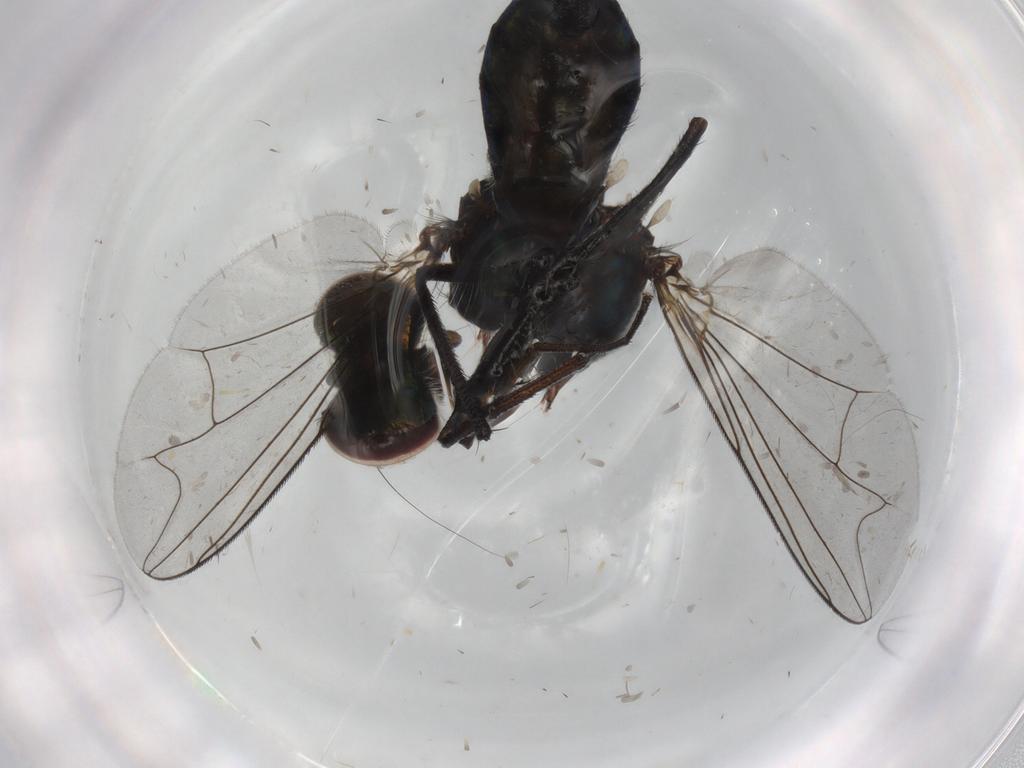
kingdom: Animalia
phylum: Arthropoda
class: Insecta
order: Diptera
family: Dolichopodidae
